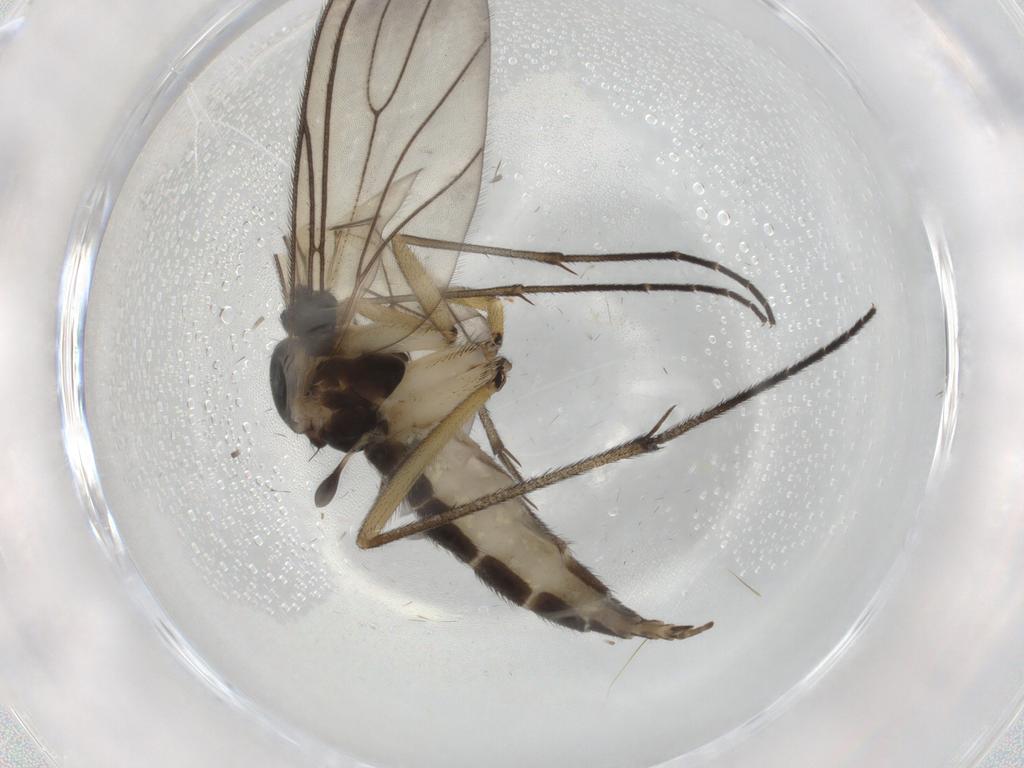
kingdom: Animalia
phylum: Arthropoda
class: Insecta
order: Diptera
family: Sciaridae
